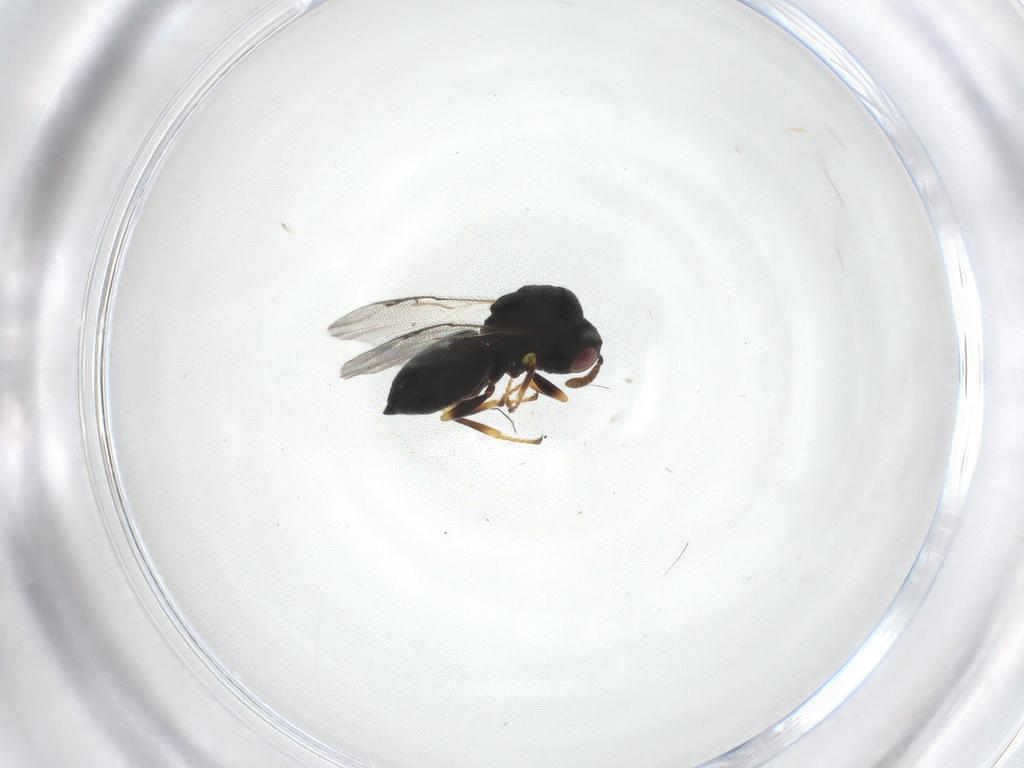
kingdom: Animalia
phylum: Arthropoda
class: Insecta
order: Hymenoptera
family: Eurytomidae
